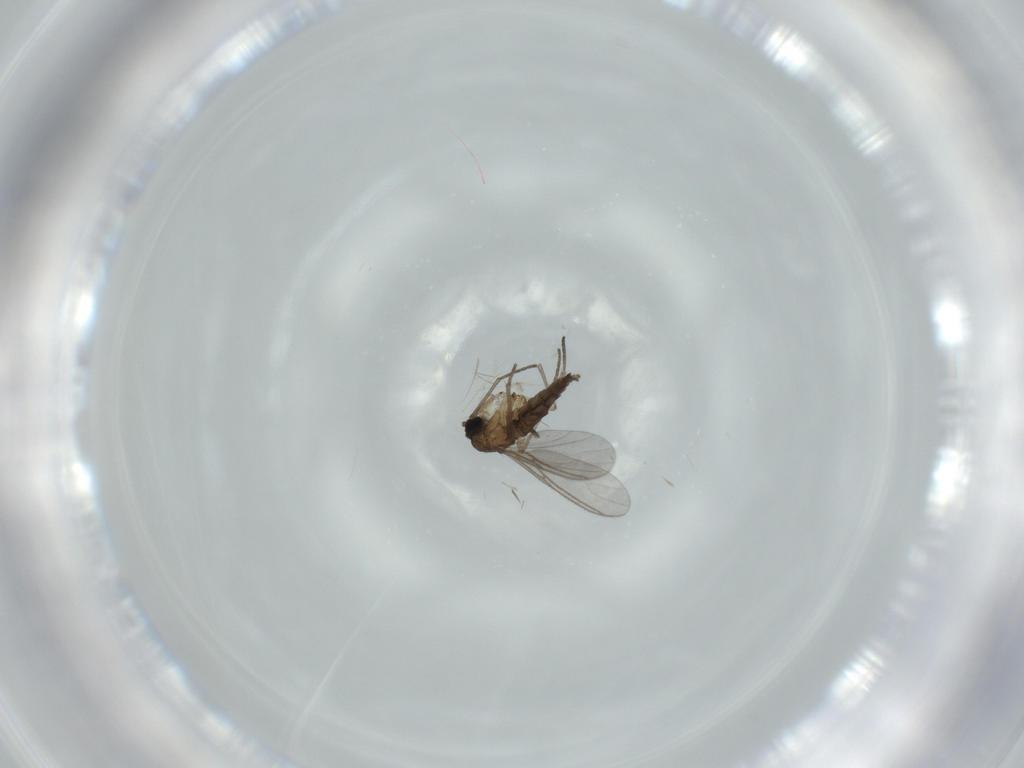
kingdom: Animalia
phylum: Arthropoda
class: Insecta
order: Diptera
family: Sciaridae
